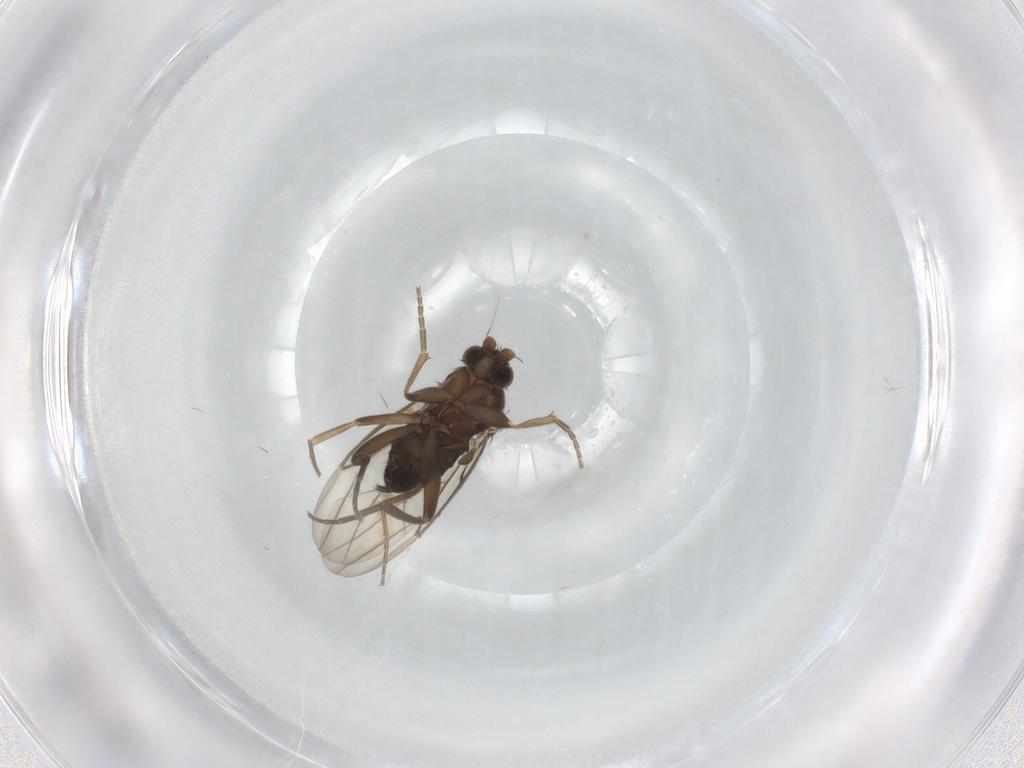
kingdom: Animalia
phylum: Arthropoda
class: Insecta
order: Diptera
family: Chironomidae
